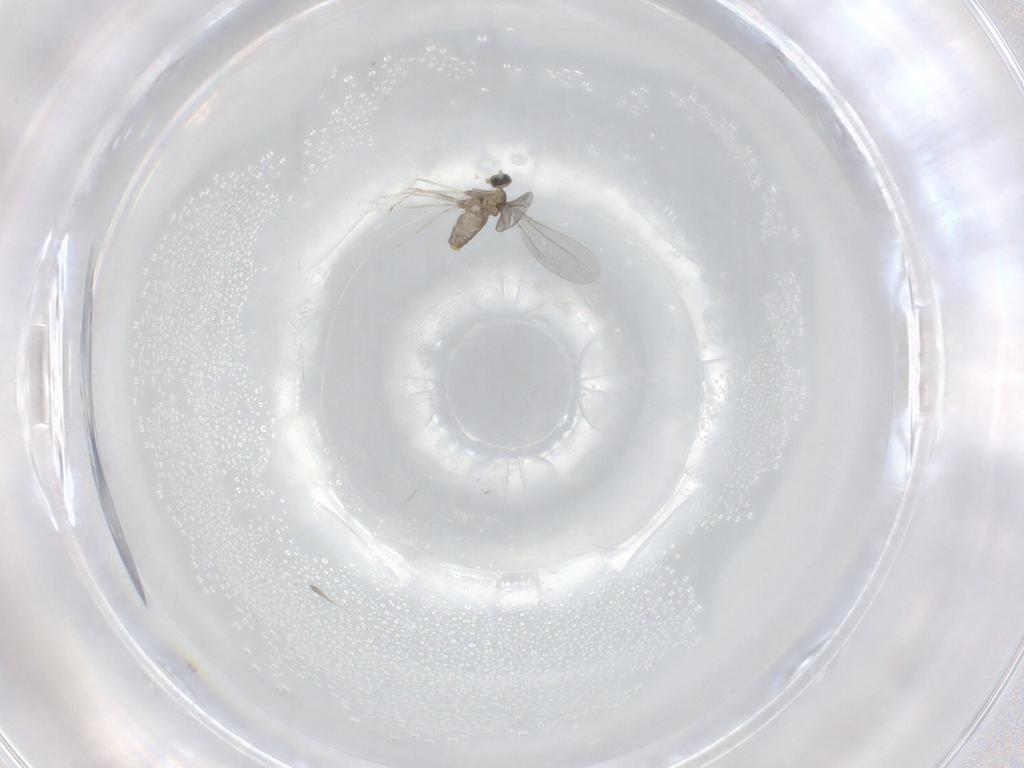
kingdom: Animalia
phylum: Arthropoda
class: Insecta
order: Diptera
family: Cecidomyiidae
